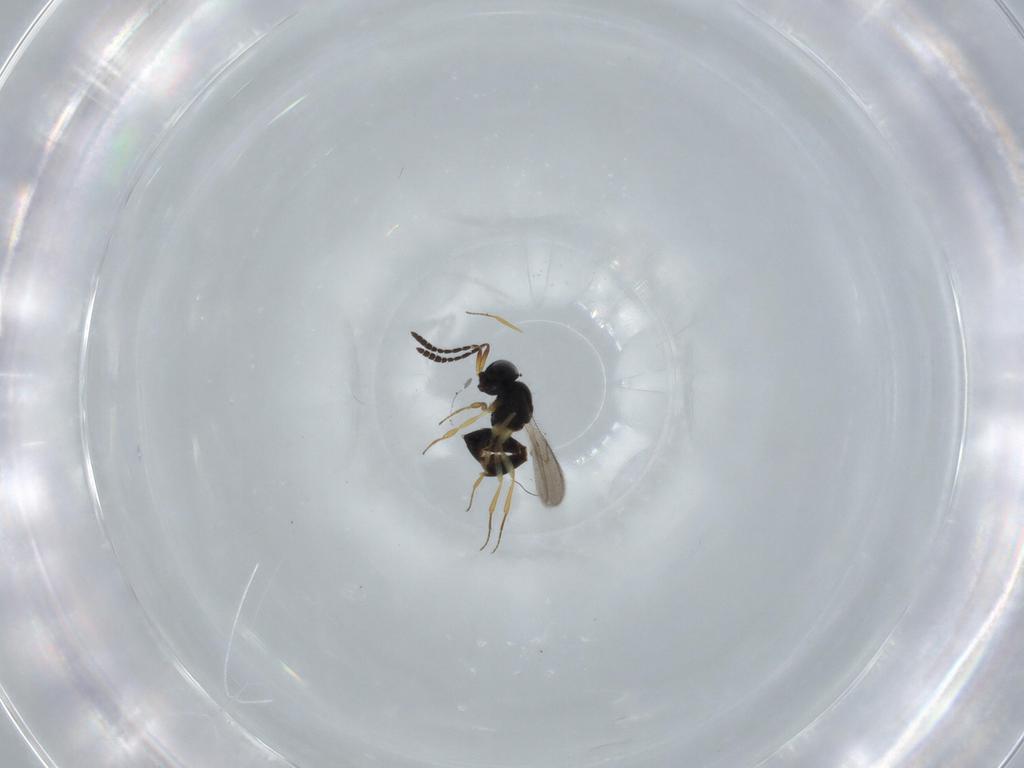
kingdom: Animalia
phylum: Arthropoda
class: Insecta
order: Hymenoptera
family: Scelionidae
